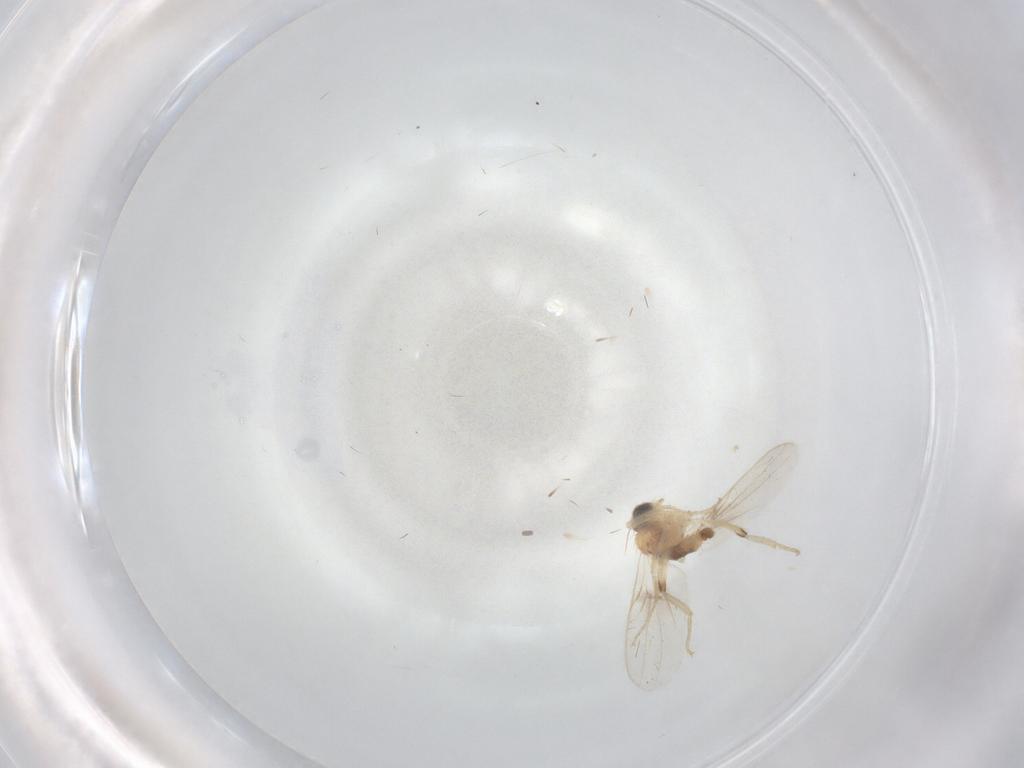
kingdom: Animalia
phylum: Arthropoda
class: Insecta
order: Diptera
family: Hybotidae
